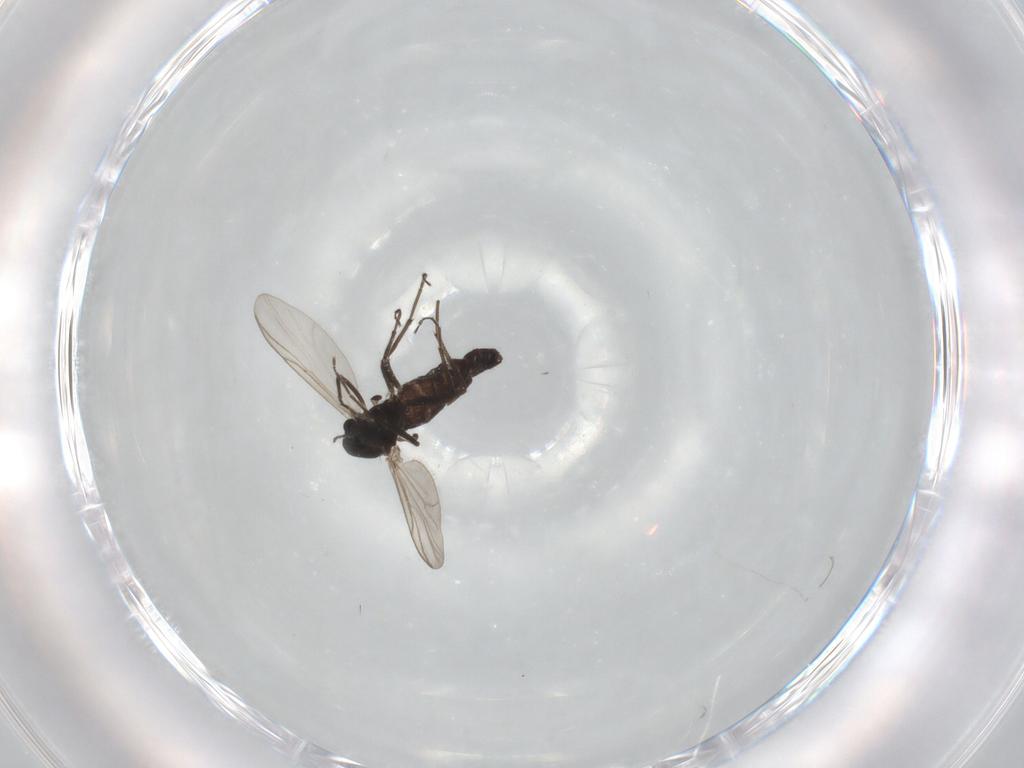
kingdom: Animalia
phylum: Arthropoda
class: Insecta
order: Diptera
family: Chironomidae
